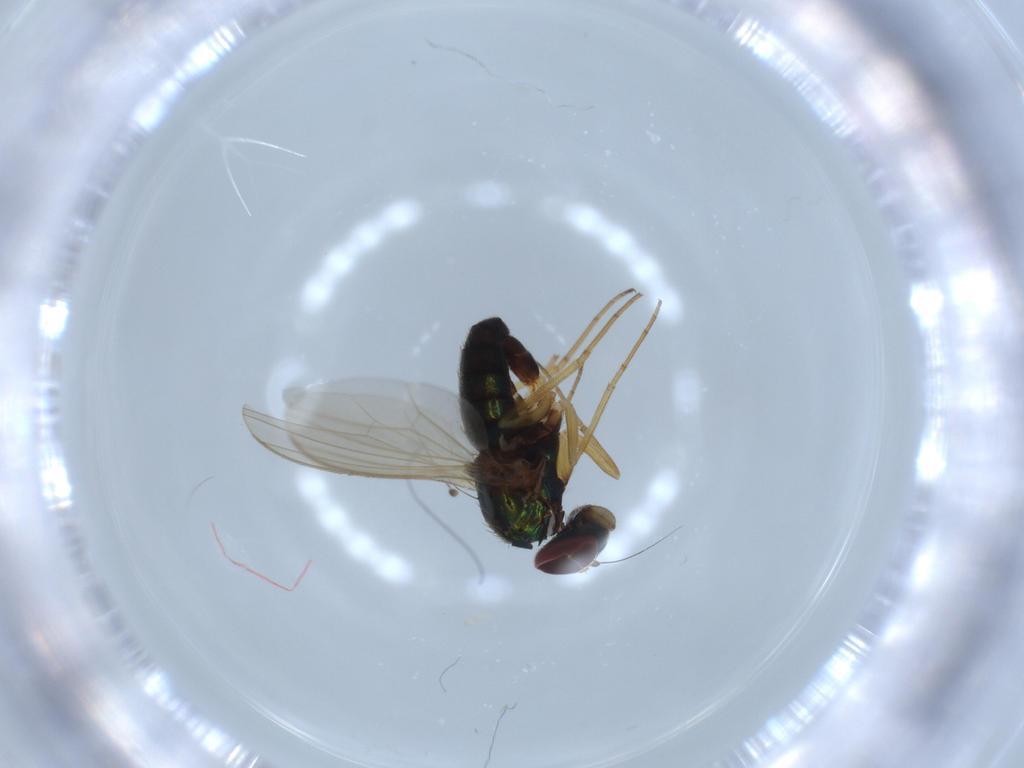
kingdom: Animalia
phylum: Arthropoda
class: Insecta
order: Diptera
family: Dolichopodidae
